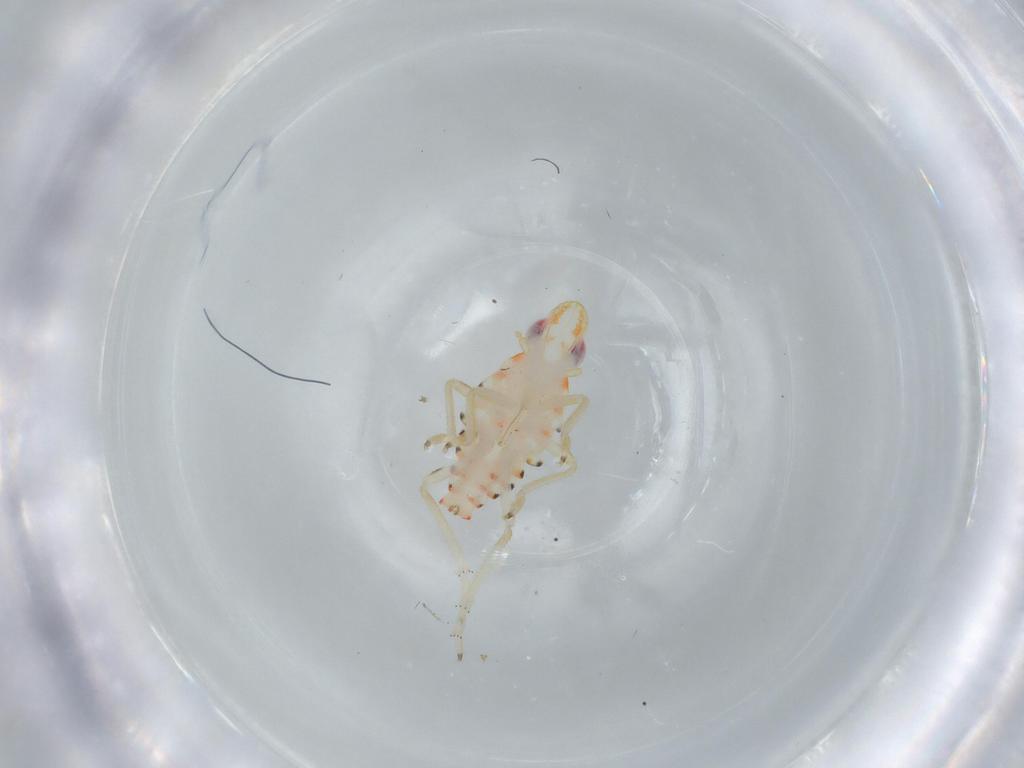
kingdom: Animalia
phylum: Arthropoda
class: Insecta
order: Hemiptera
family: Tropiduchidae
